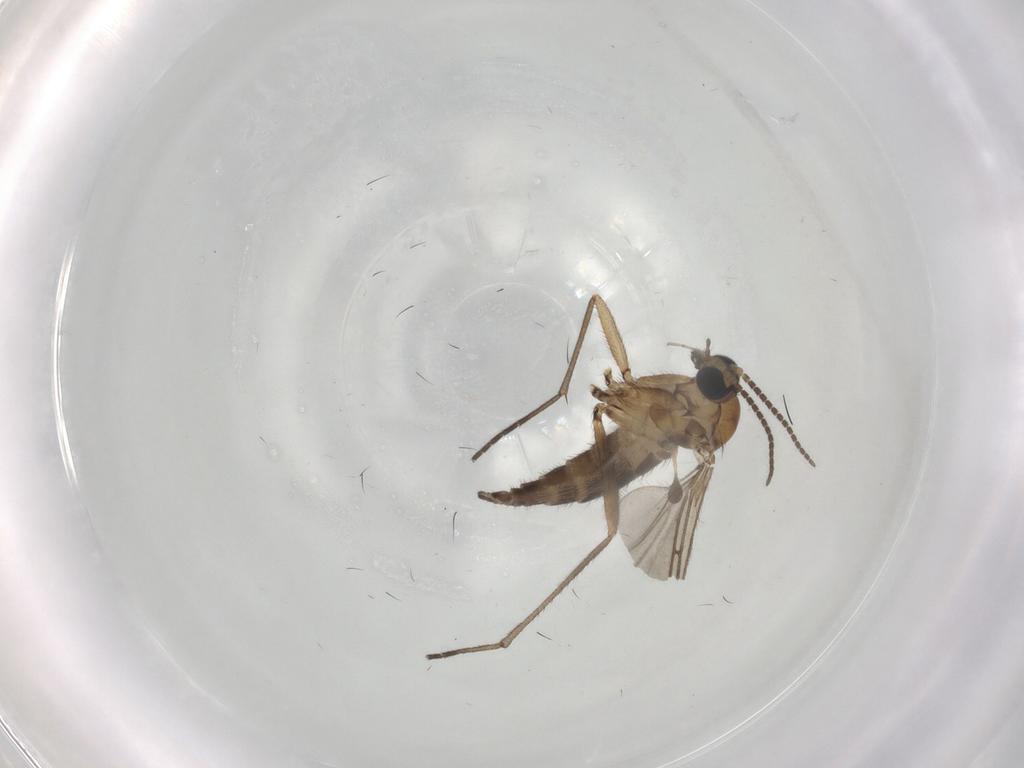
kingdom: Animalia
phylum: Arthropoda
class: Insecta
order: Diptera
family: Sciaridae
